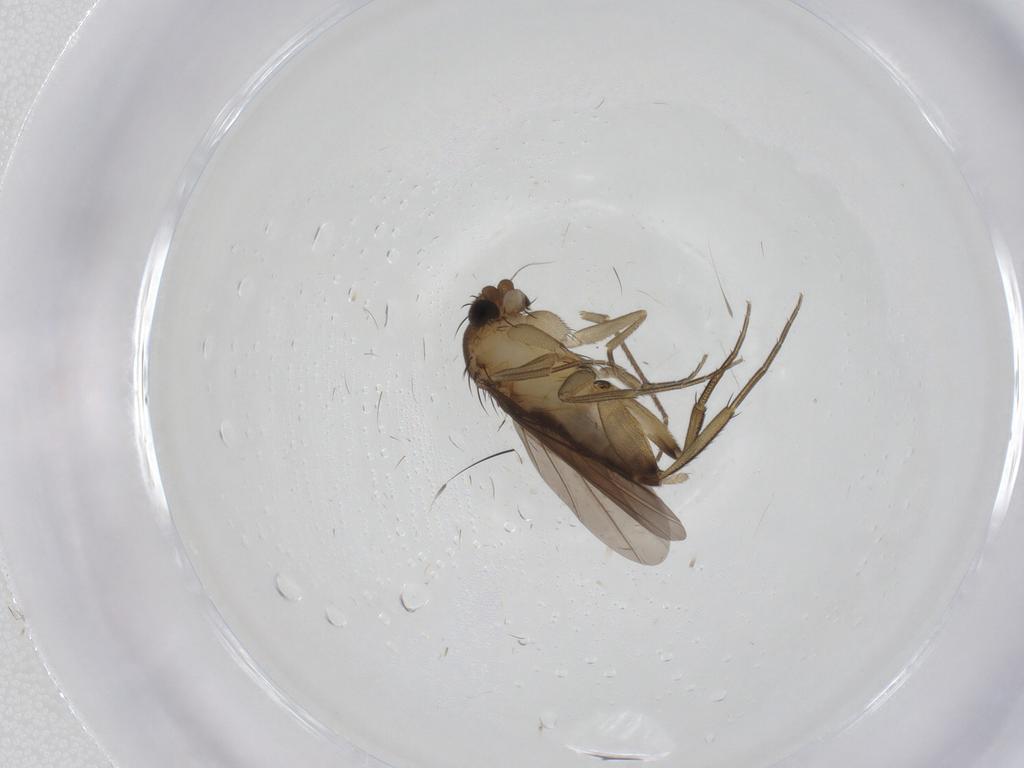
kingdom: Animalia
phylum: Arthropoda
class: Insecta
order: Diptera
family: Phoridae
